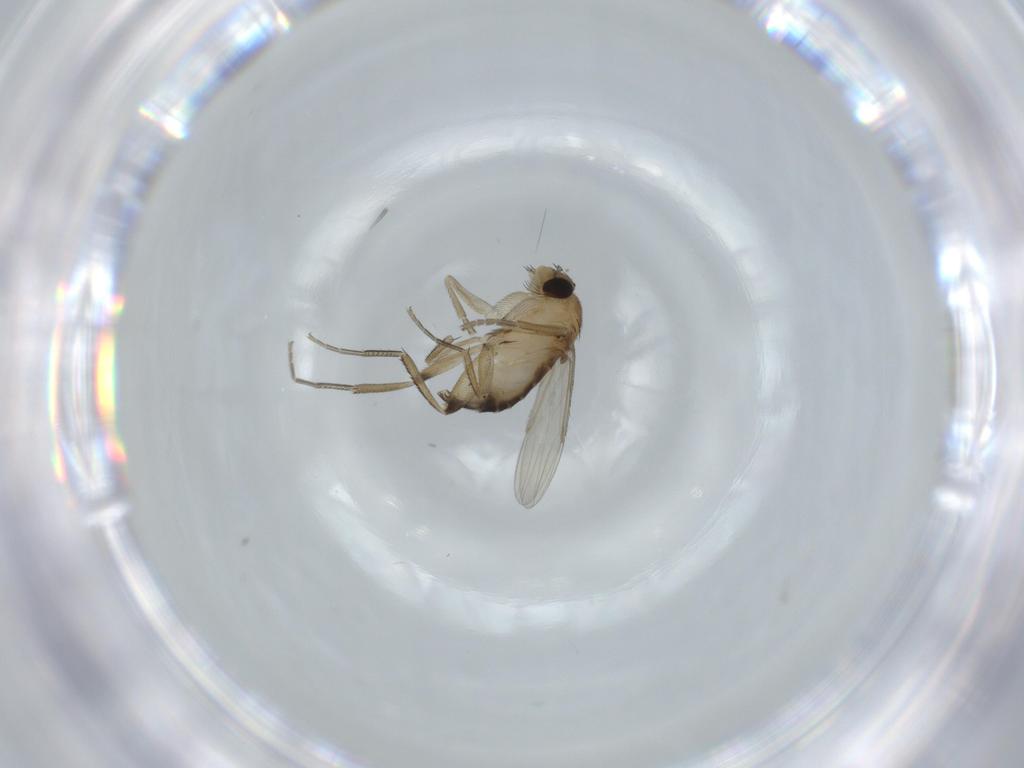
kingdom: Animalia
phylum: Arthropoda
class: Insecta
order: Diptera
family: Phoridae
